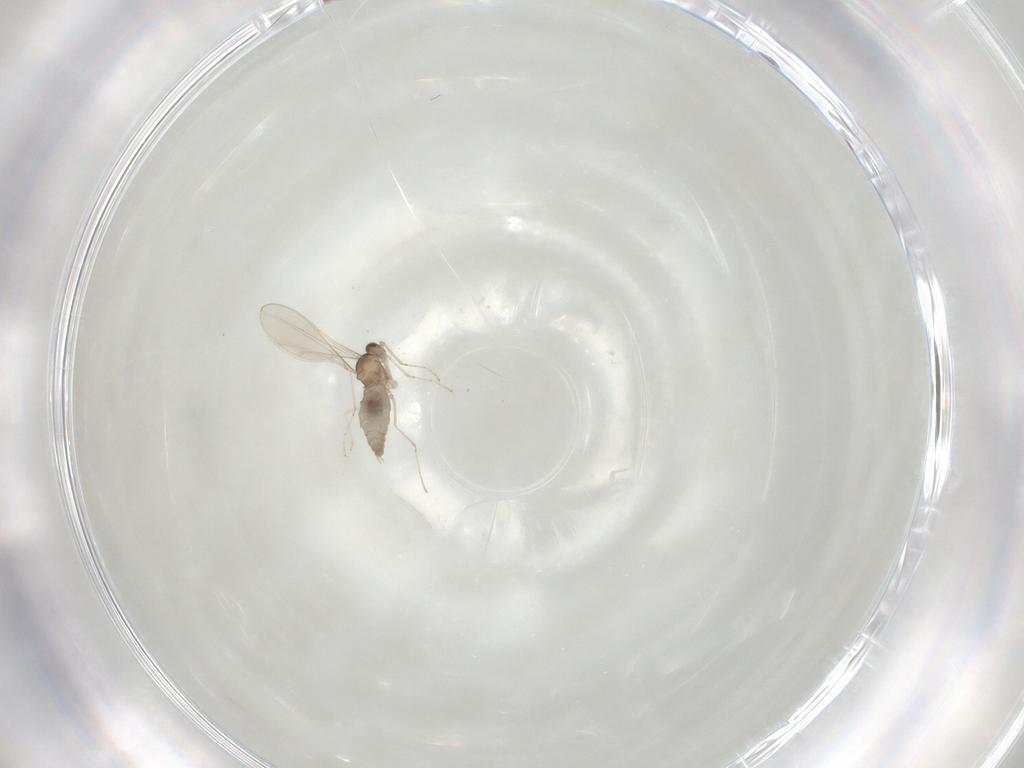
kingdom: Animalia
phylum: Arthropoda
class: Insecta
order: Diptera
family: Cecidomyiidae
